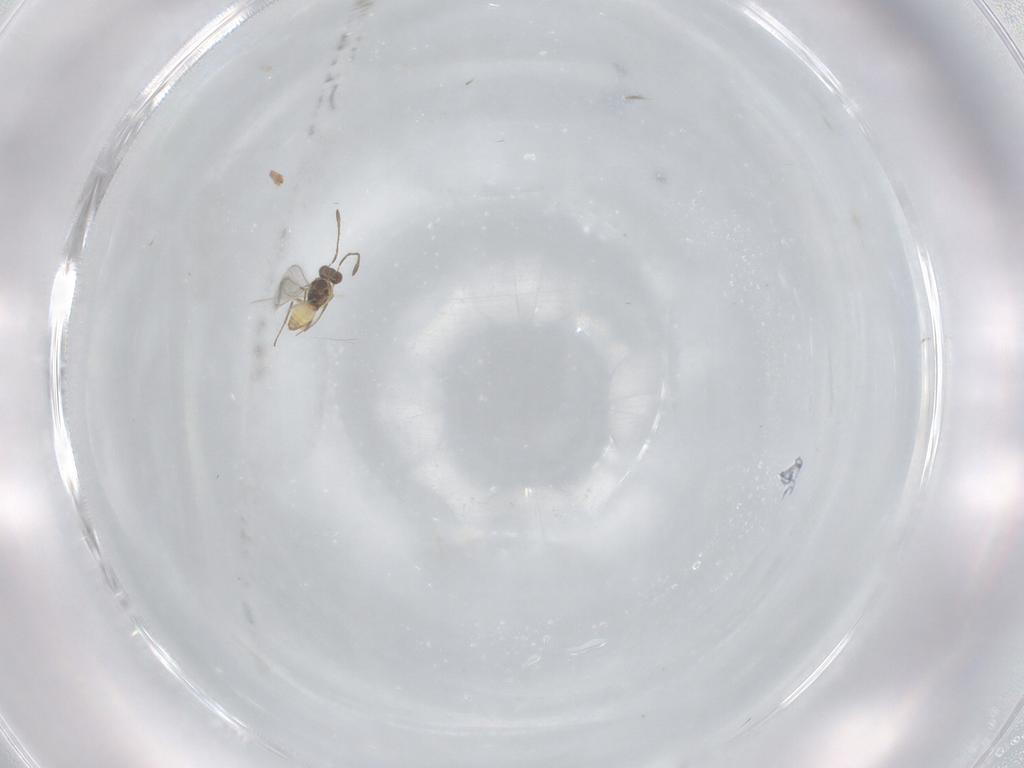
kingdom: Animalia
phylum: Arthropoda
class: Insecta
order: Hymenoptera
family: Mymaridae
